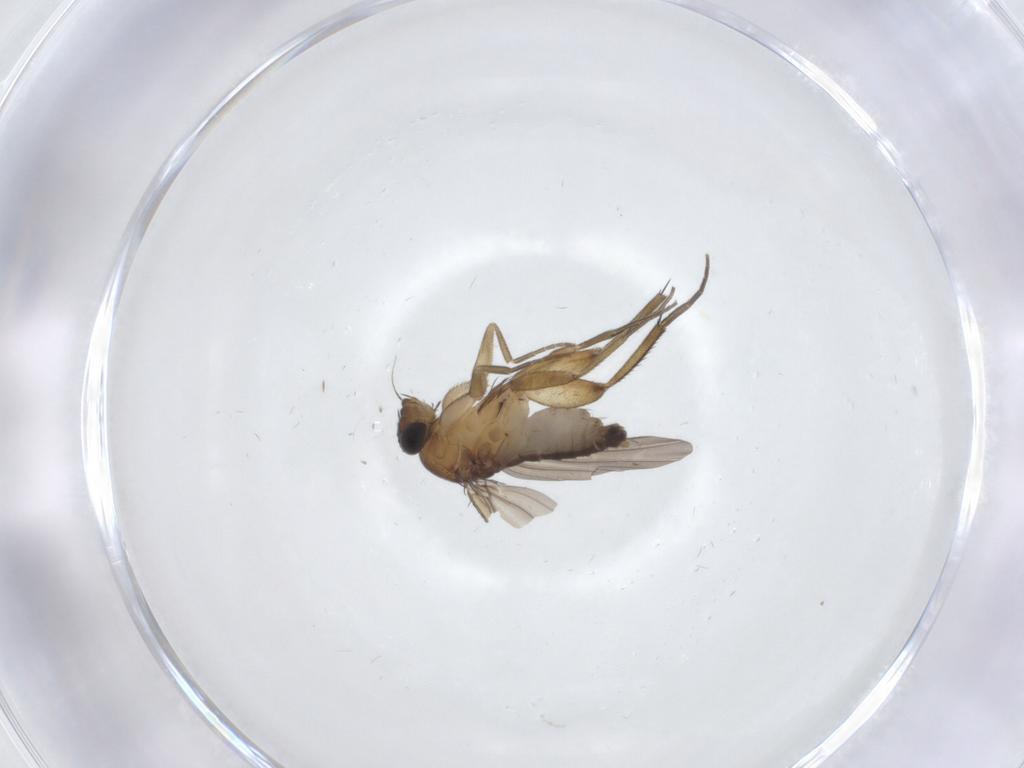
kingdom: Animalia
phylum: Arthropoda
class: Insecta
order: Diptera
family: Phoridae
